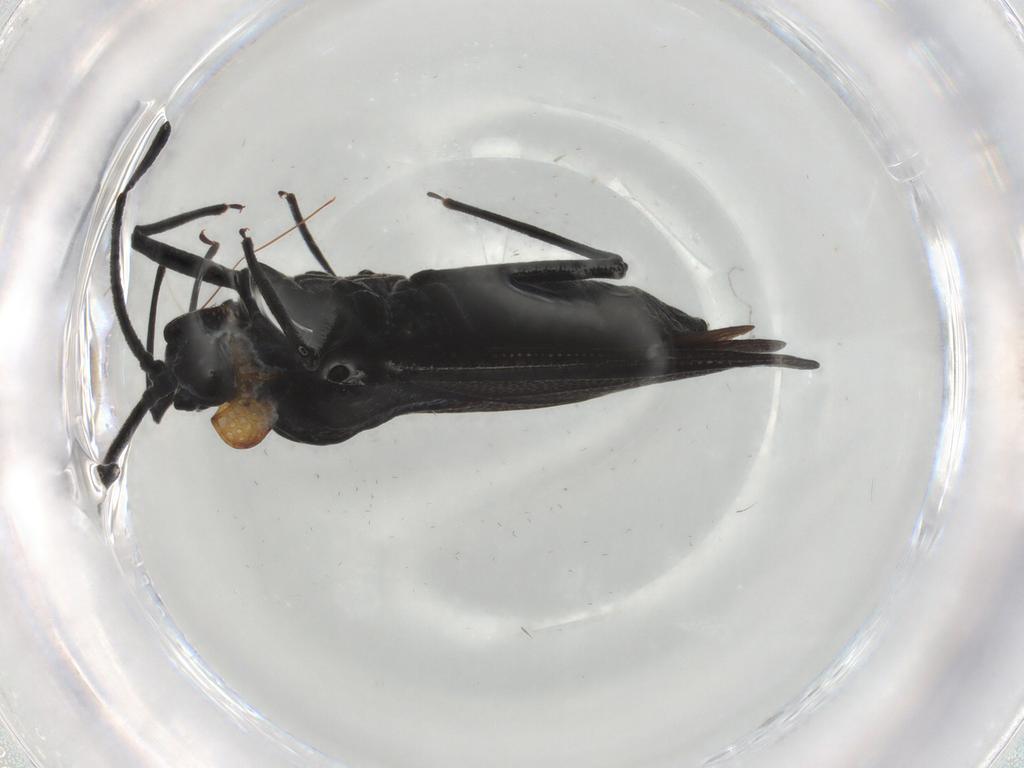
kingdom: Animalia
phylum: Arthropoda
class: Insecta
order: Hemiptera
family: Tingidae
